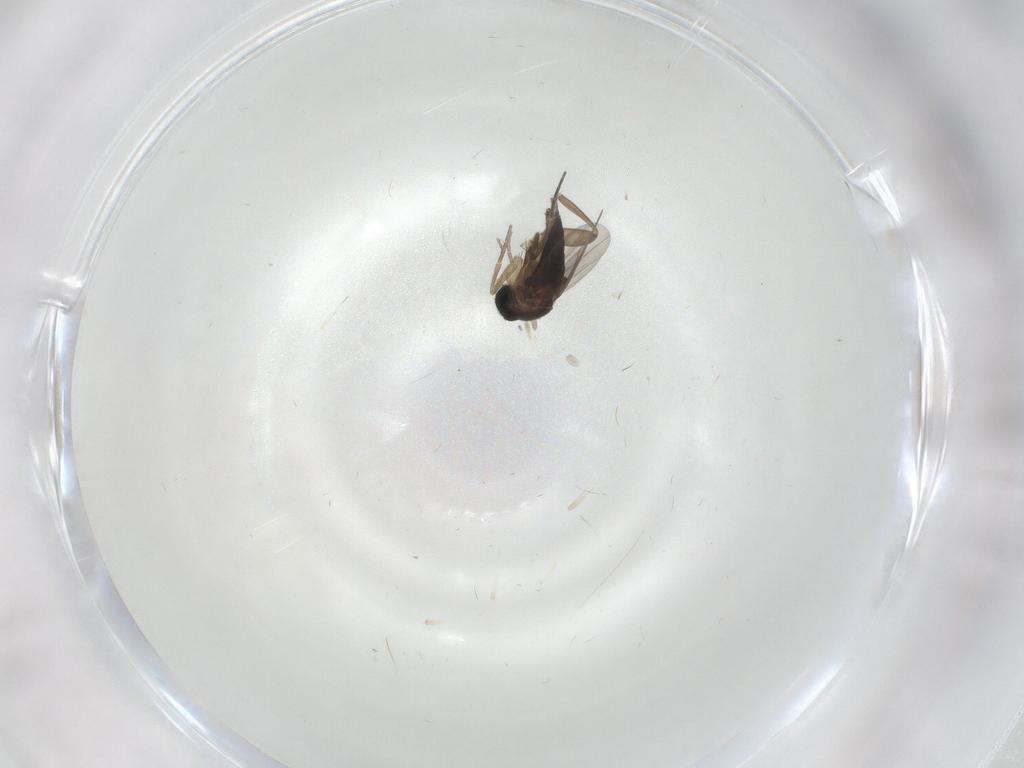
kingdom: Animalia
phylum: Arthropoda
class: Insecta
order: Diptera
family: Phoridae
